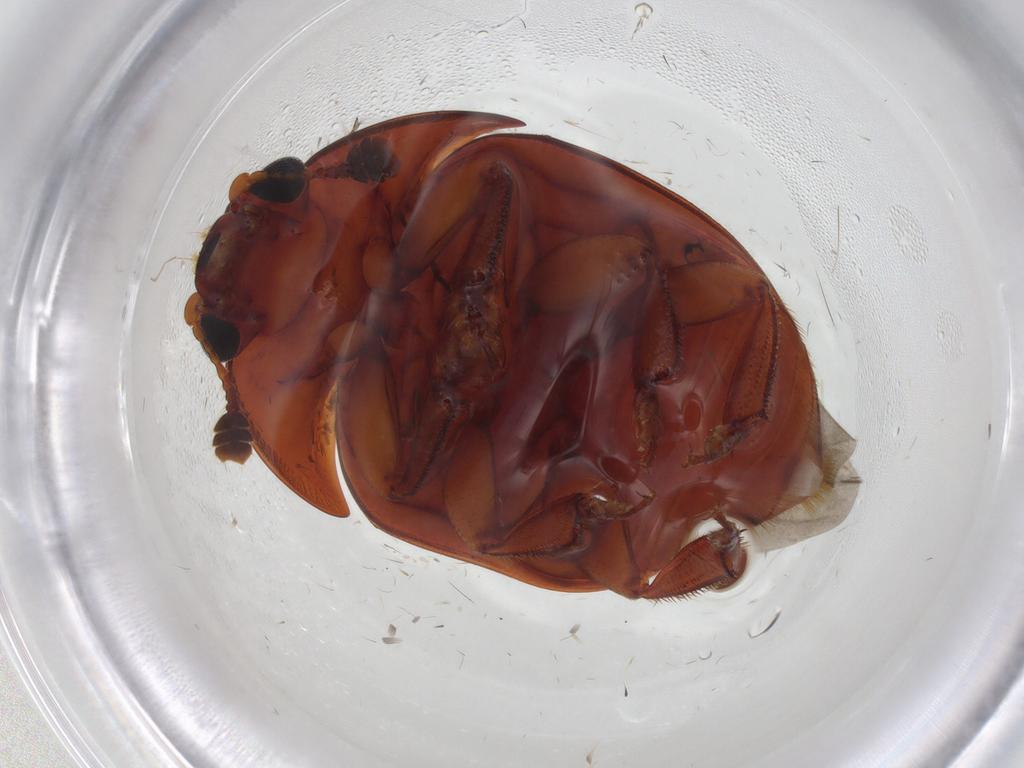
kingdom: Animalia
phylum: Arthropoda
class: Insecta
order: Coleoptera
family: Nitidulidae
